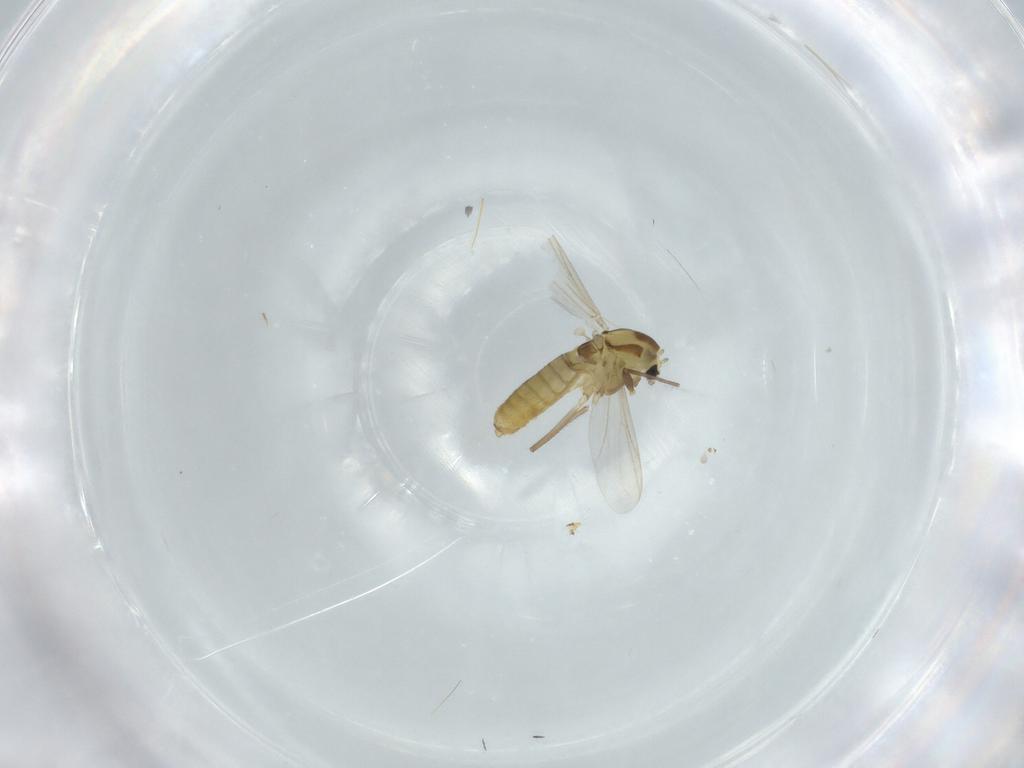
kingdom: Animalia
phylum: Arthropoda
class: Insecta
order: Diptera
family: Chironomidae
